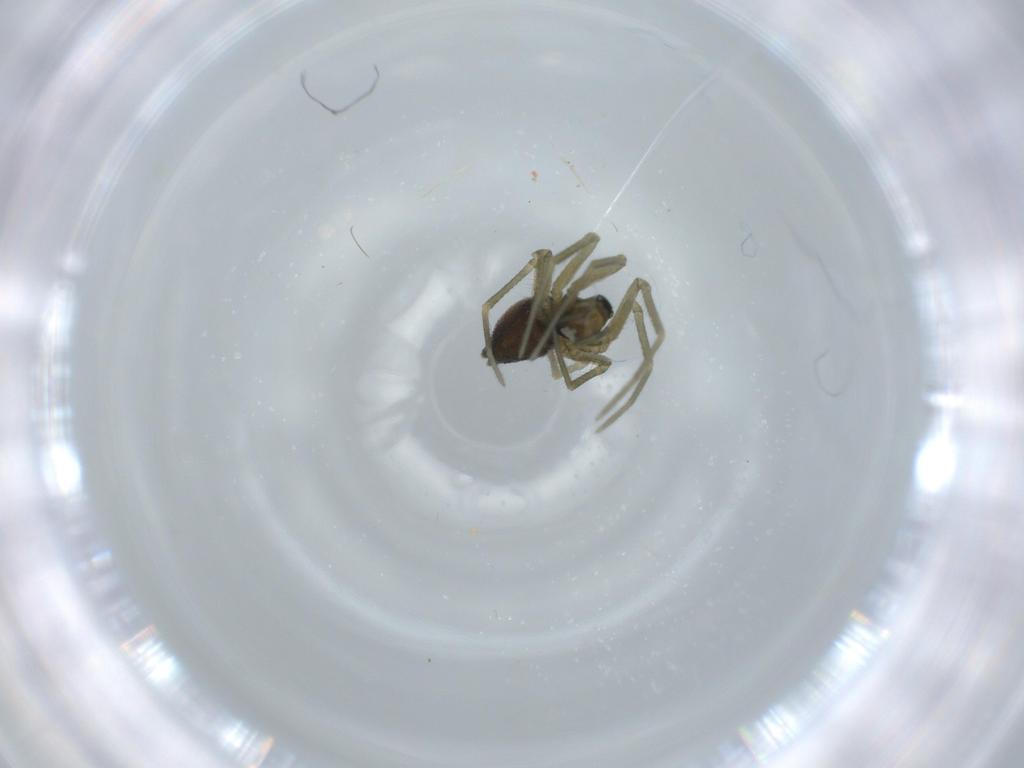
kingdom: Animalia
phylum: Arthropoda
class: Arachnida
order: Araneae
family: Linyphiidae
